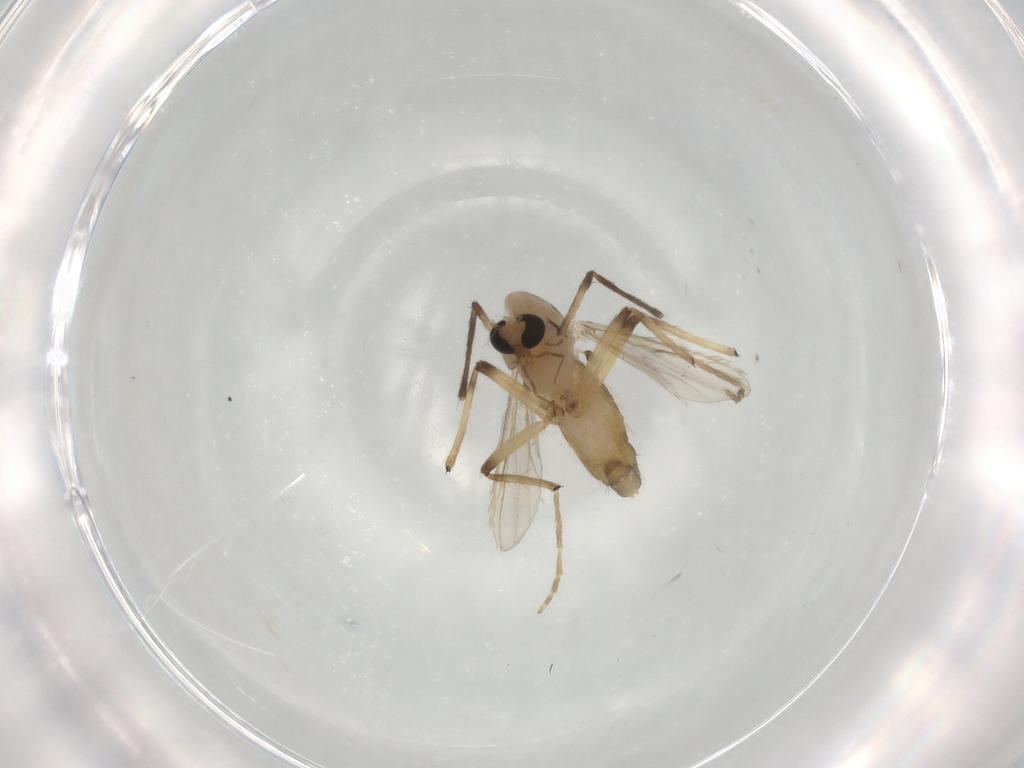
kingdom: Animalia
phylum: Arthropoda
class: Insecta
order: Diptera
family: Chironomidae
